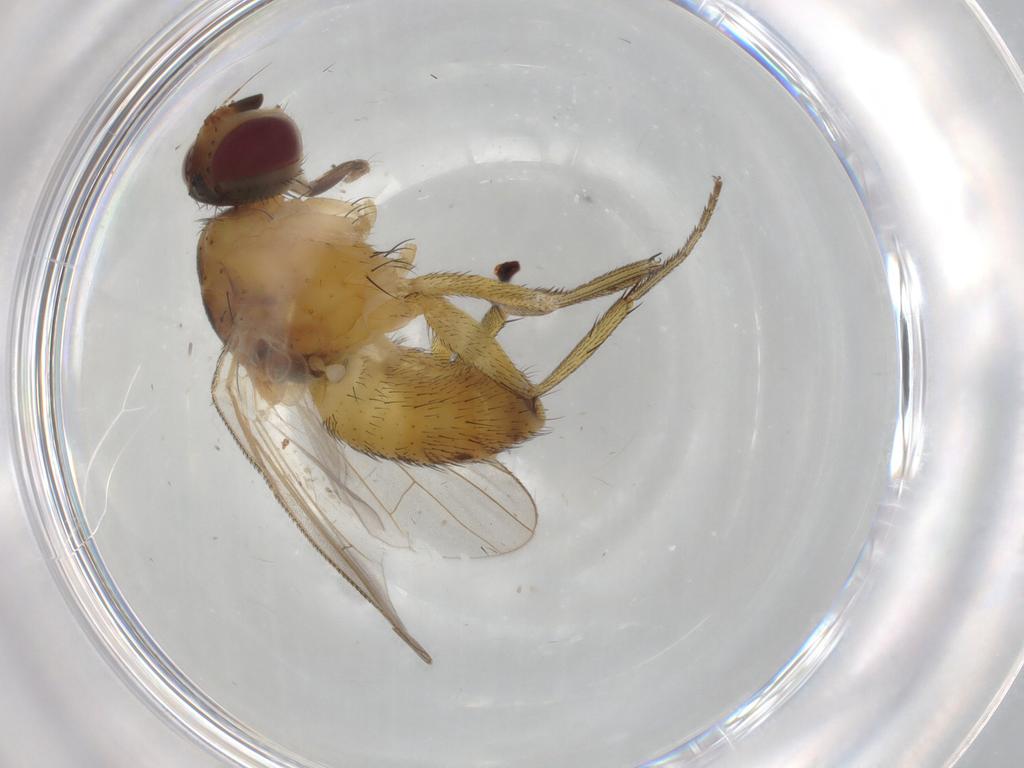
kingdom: Animalia
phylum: Arthropoda
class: Insecta
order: Diptera
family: Muscidae
